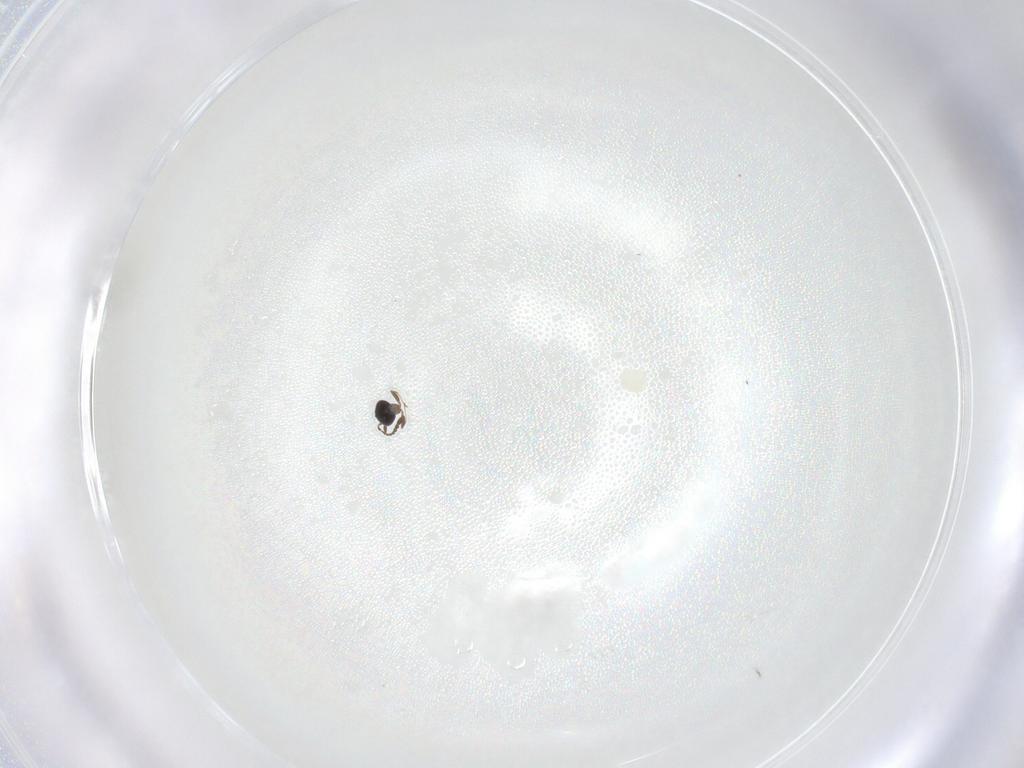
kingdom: Animalia
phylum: Arthropoda
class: Insecta
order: Hymenoptera
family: Ichneumonidae
